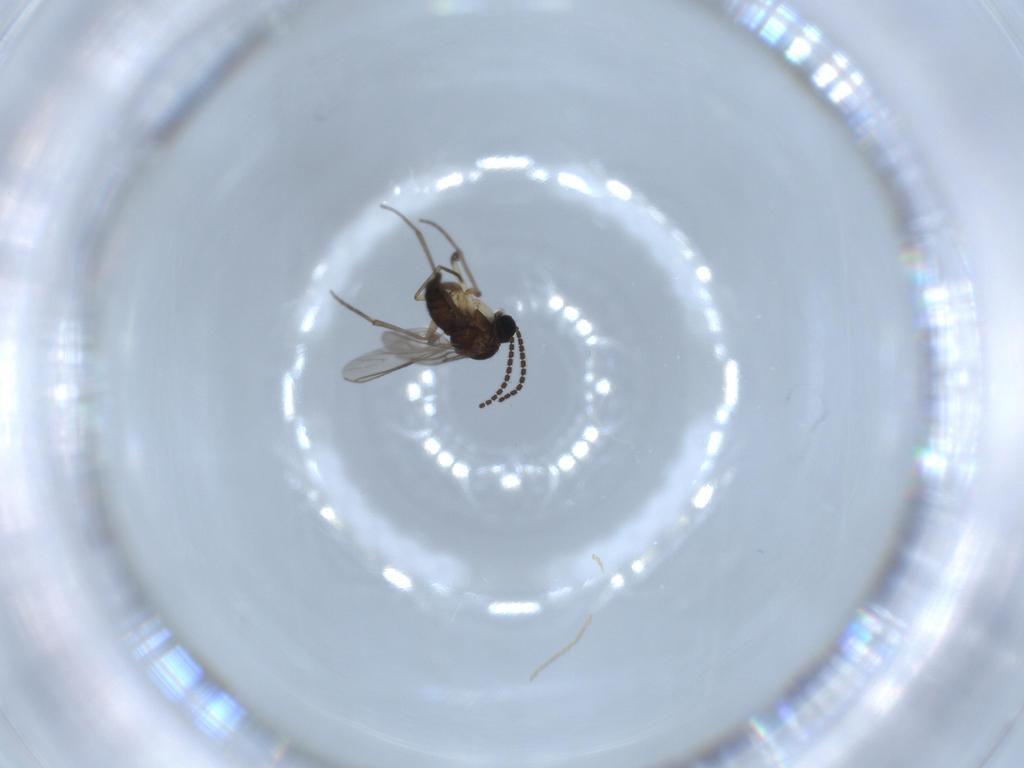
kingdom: Animalia
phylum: Arthropoda
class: Insecta
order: Diptera
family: Sciaridae
